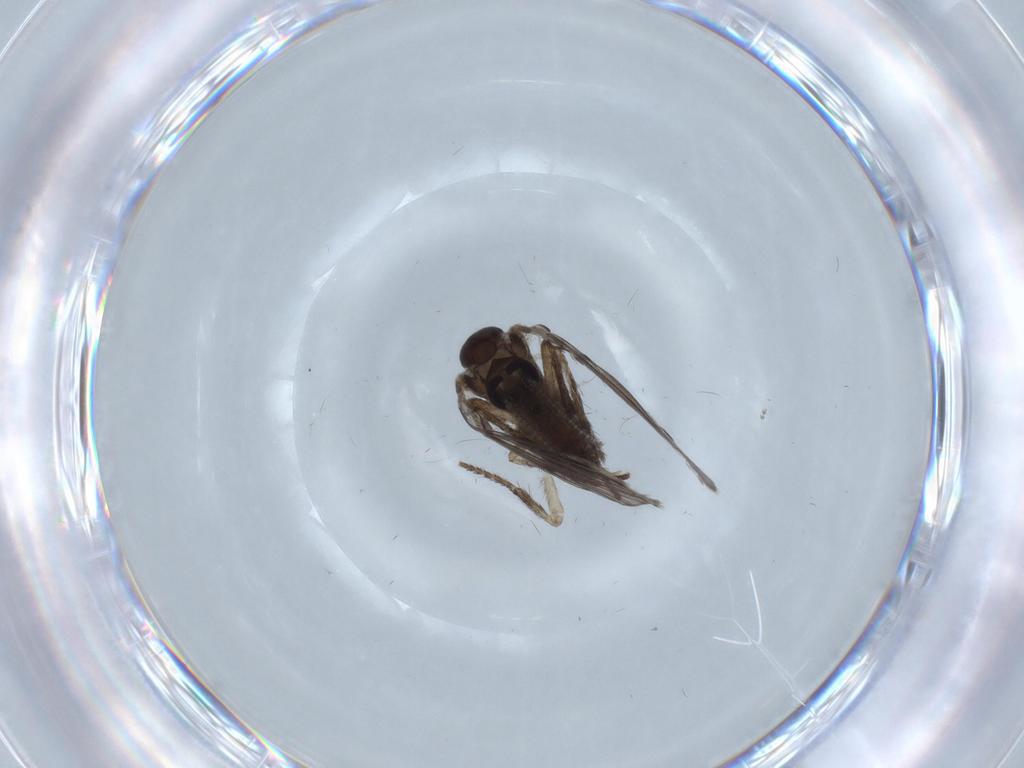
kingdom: Animalia
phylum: Arthropoda
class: Insecta
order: Diptera
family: Psychodidae
